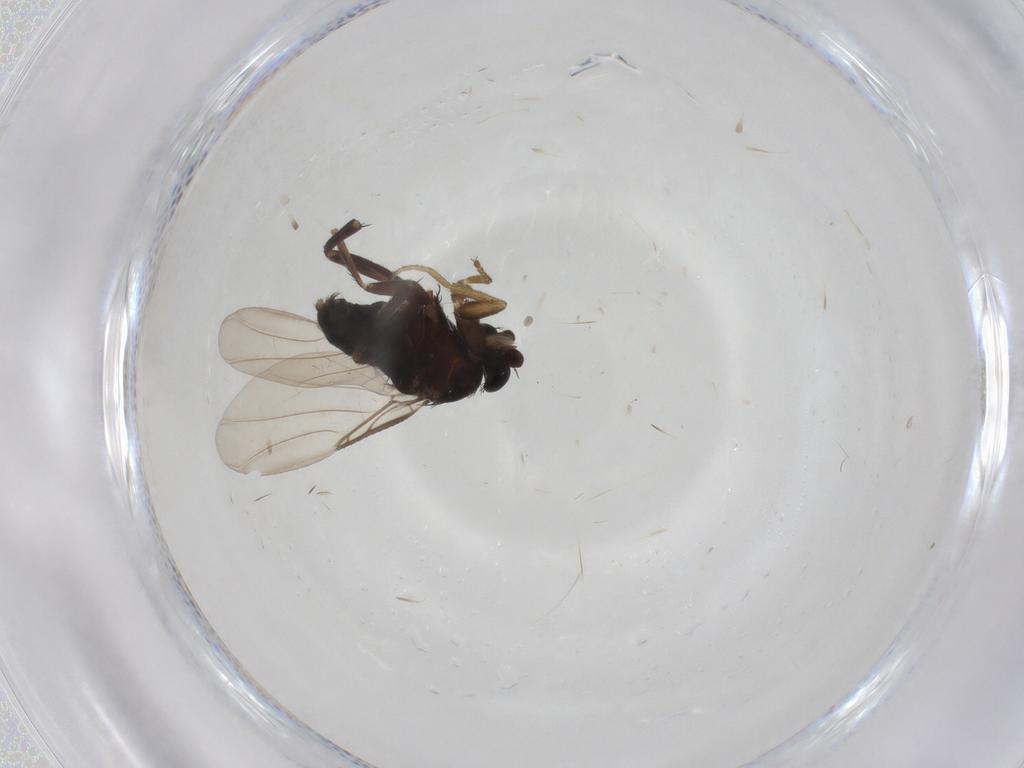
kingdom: Animalia
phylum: Arthropoda
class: Insecta
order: Diptera
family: Phoridae
